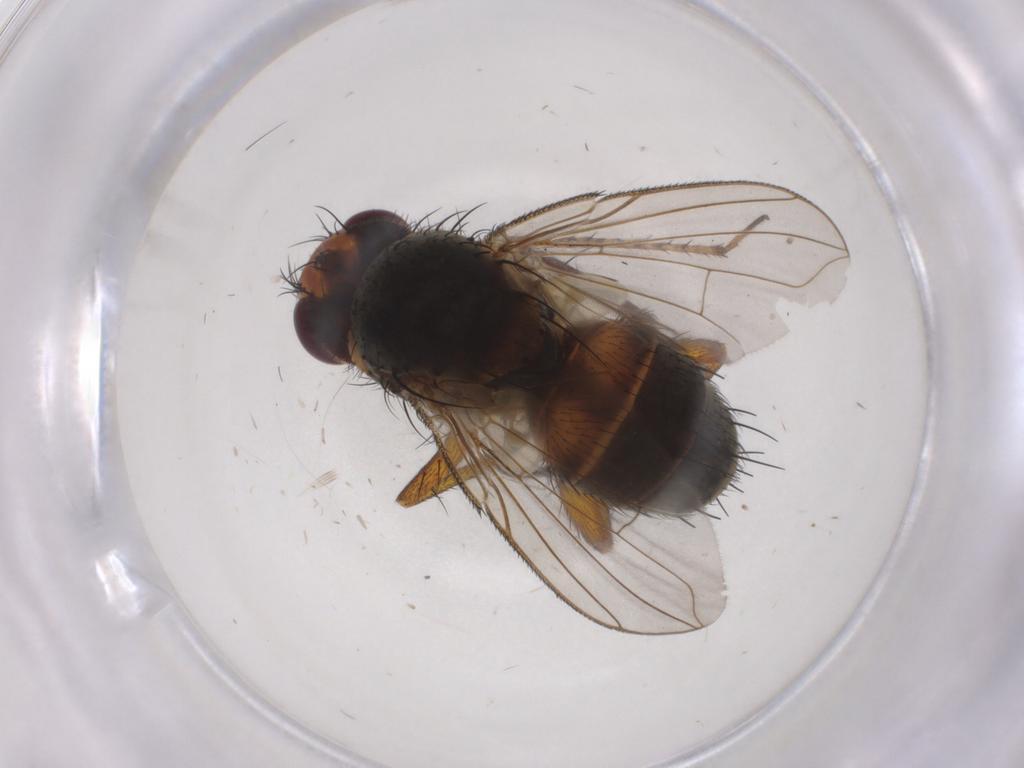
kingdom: Animalia
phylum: Arthropoda
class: Insecta
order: Diptera
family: Tachinidae
